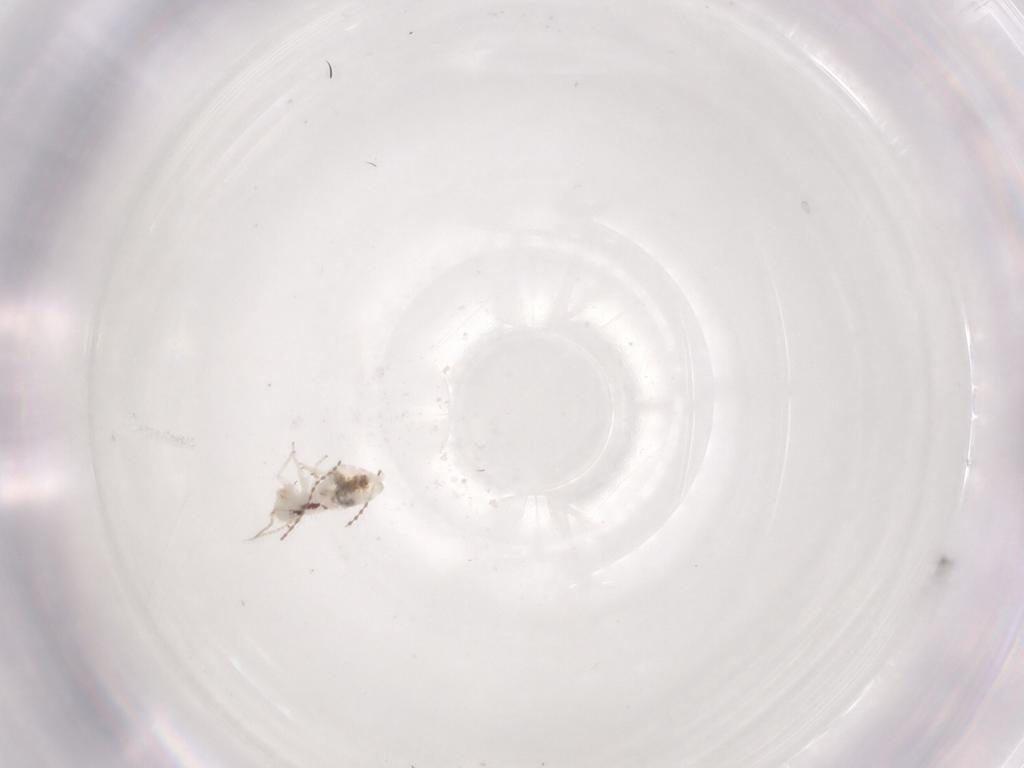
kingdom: Animalia
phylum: Arthropoda
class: Insecta
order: Psocodea
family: Philotarsidae
